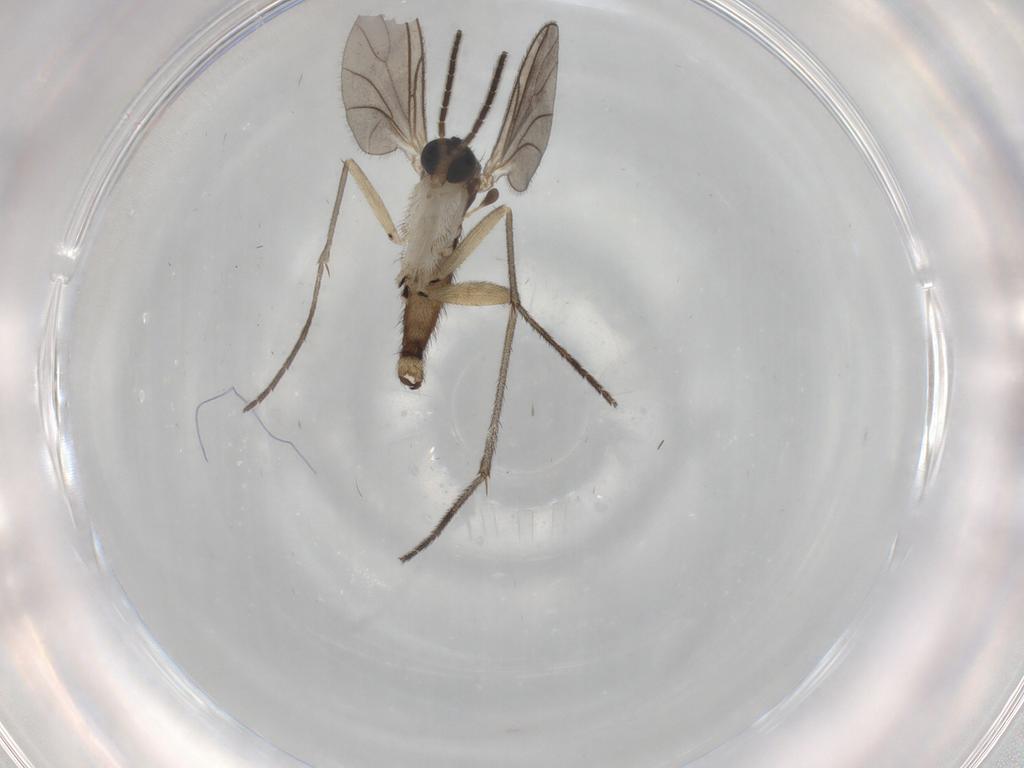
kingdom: Animalia
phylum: Arthropoda
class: Insecta
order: Diptera
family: Sciaridae
